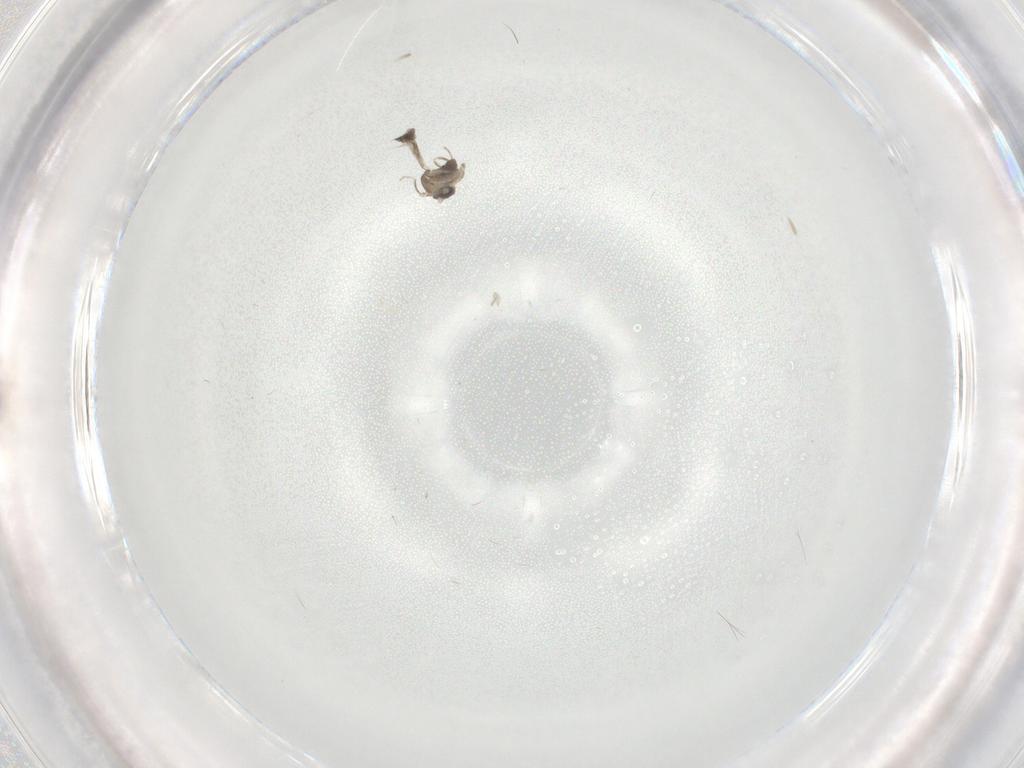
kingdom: Animalia
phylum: Arthropoda
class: Insecta
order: Diptera
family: Cecidomyiidae
